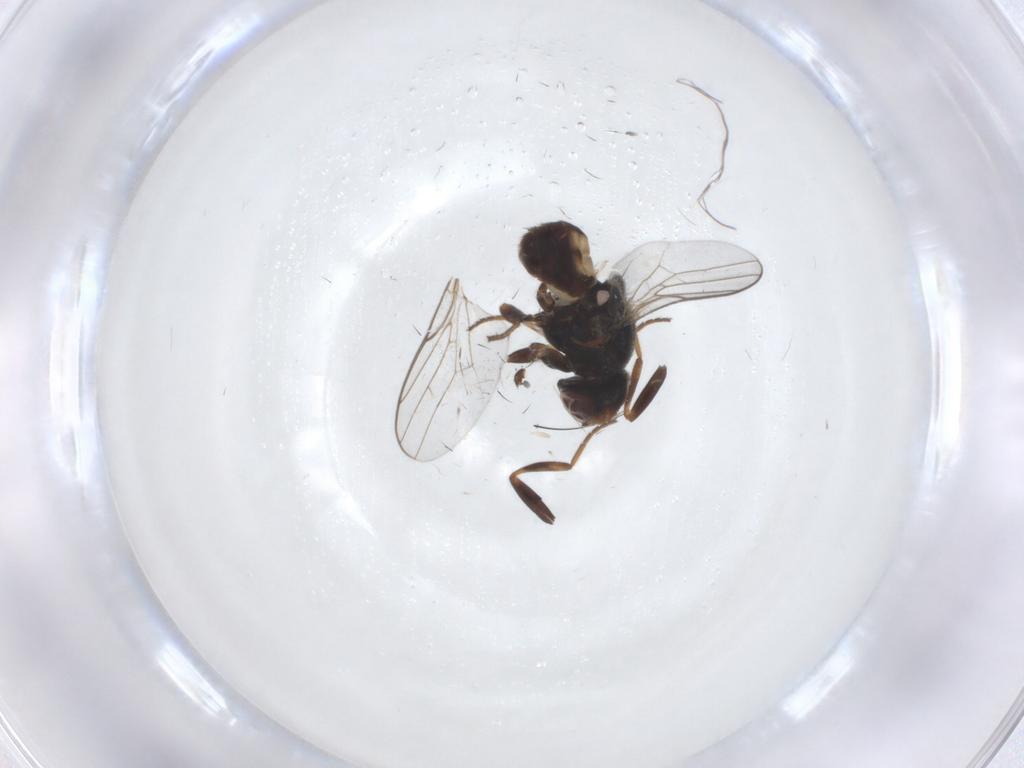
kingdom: Animalia
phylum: Arthropoda
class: Insecta
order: Diptera
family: Chloropidae
